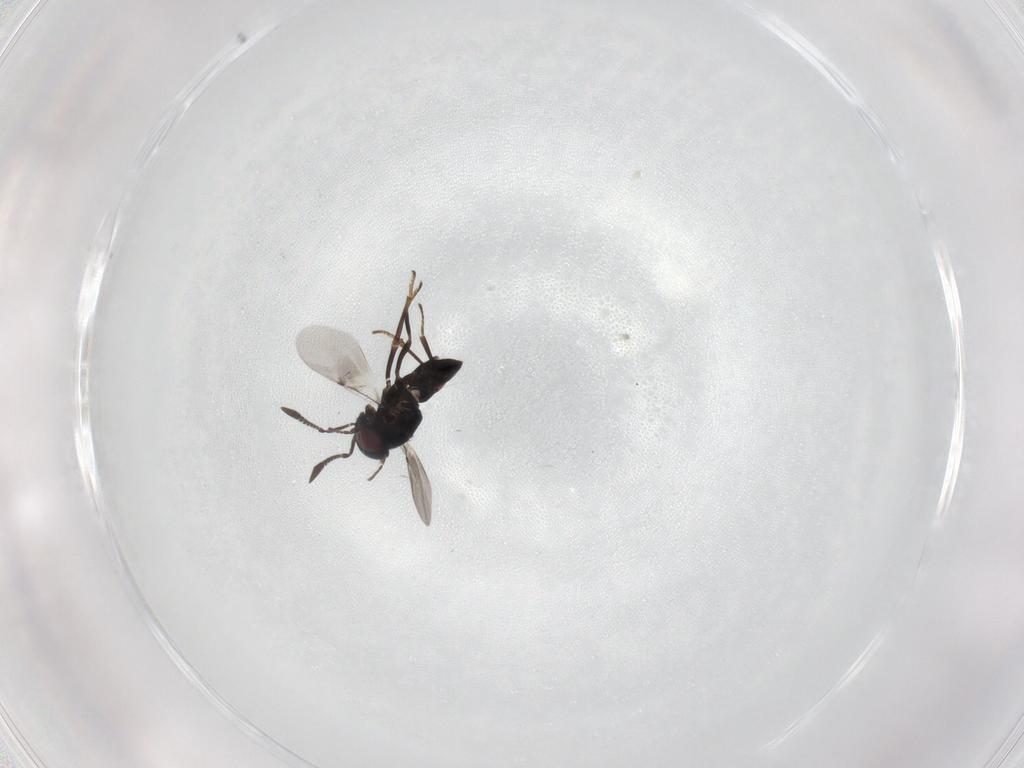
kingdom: Animalia
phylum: Arthropoda
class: Insecta
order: Hymenoptera
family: Encyrtidae
